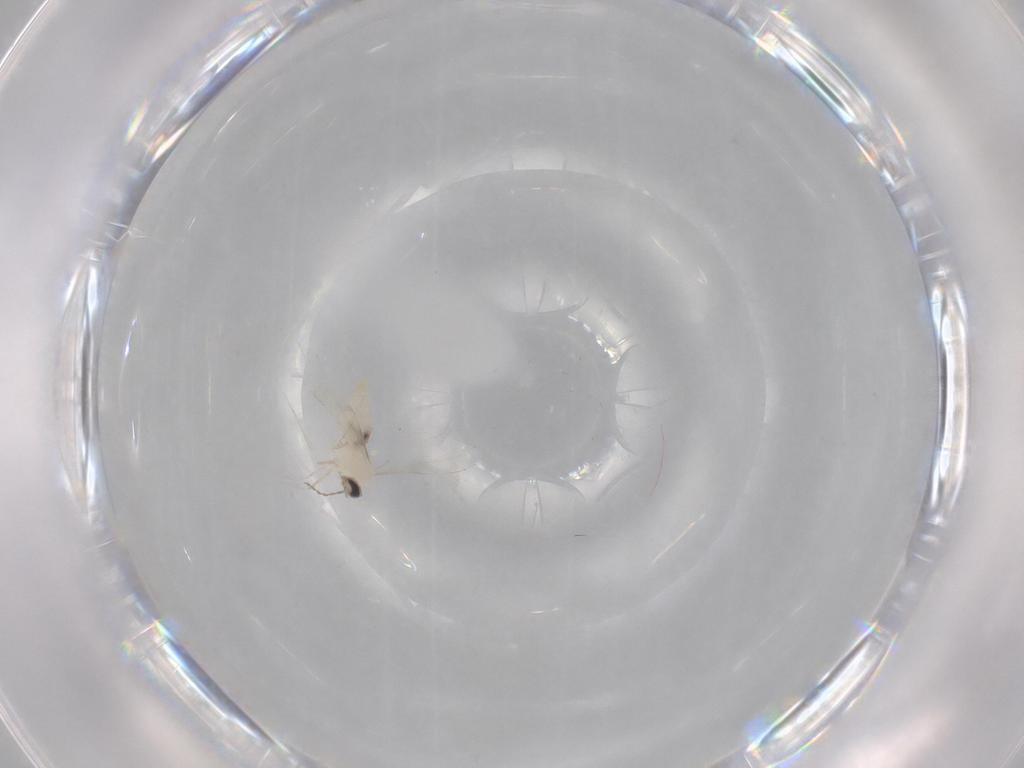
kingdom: Animalia
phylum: Arthropoda
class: Insecta
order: Diptera
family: Cecidomyiidae
